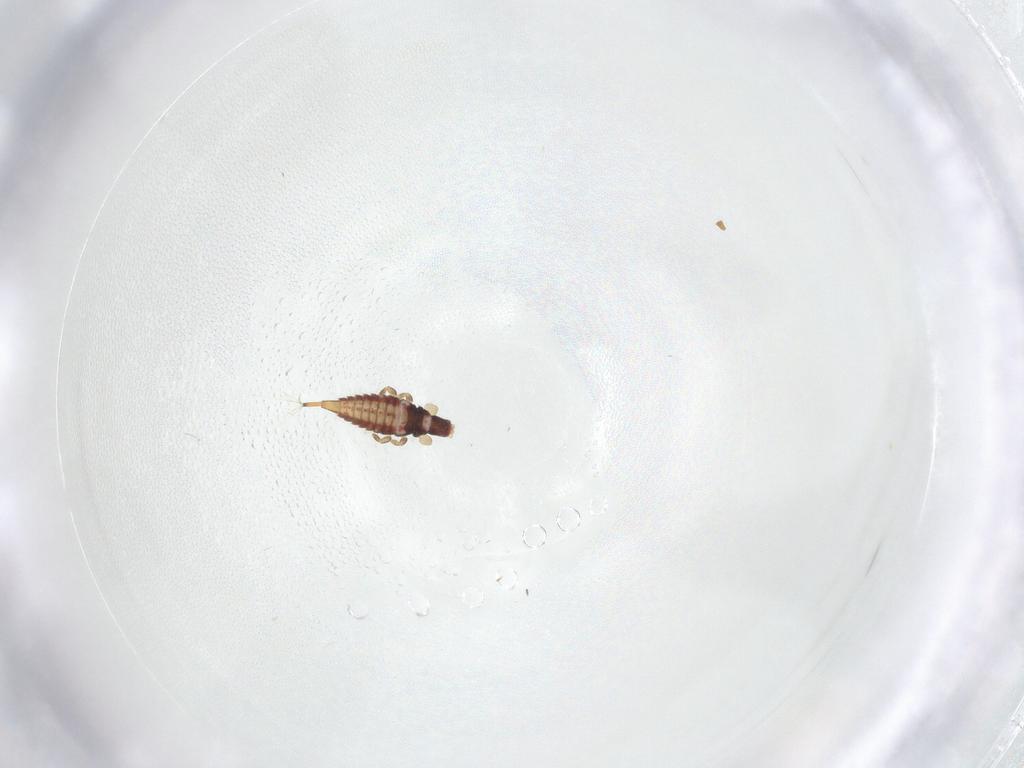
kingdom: Animalia
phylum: Arthropoda
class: Insecta
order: Thysanoptera
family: Phlaeothripidae
